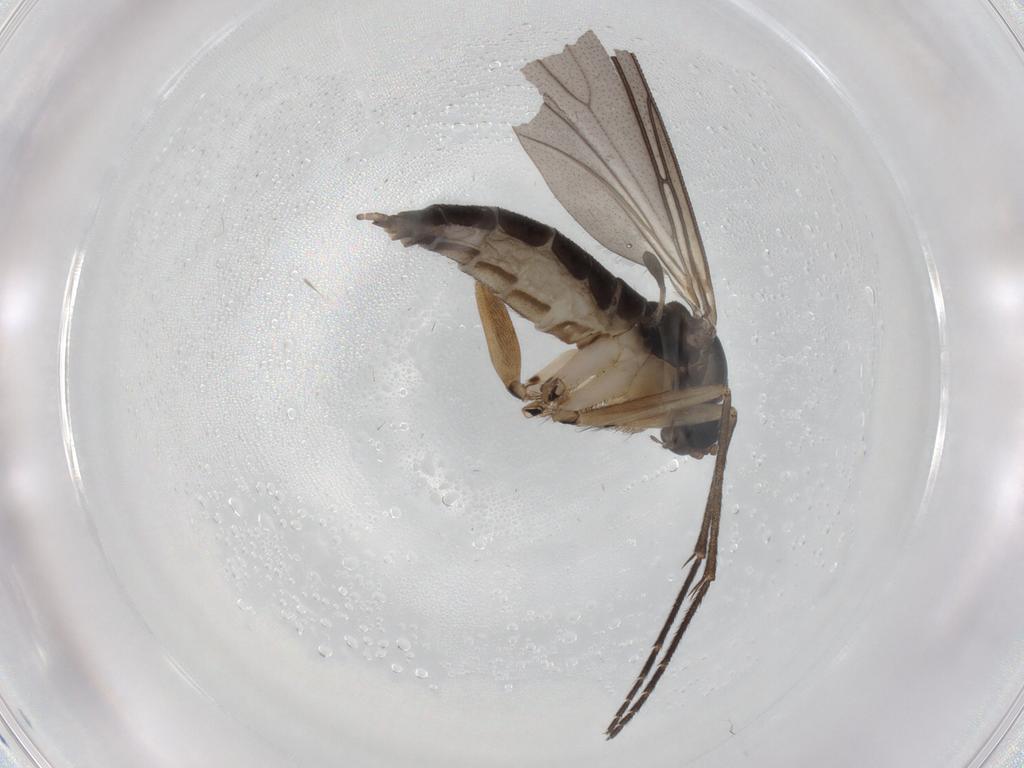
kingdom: Animalia
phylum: Arthropoda
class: Insecta
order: Diptera
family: Sciaridae
